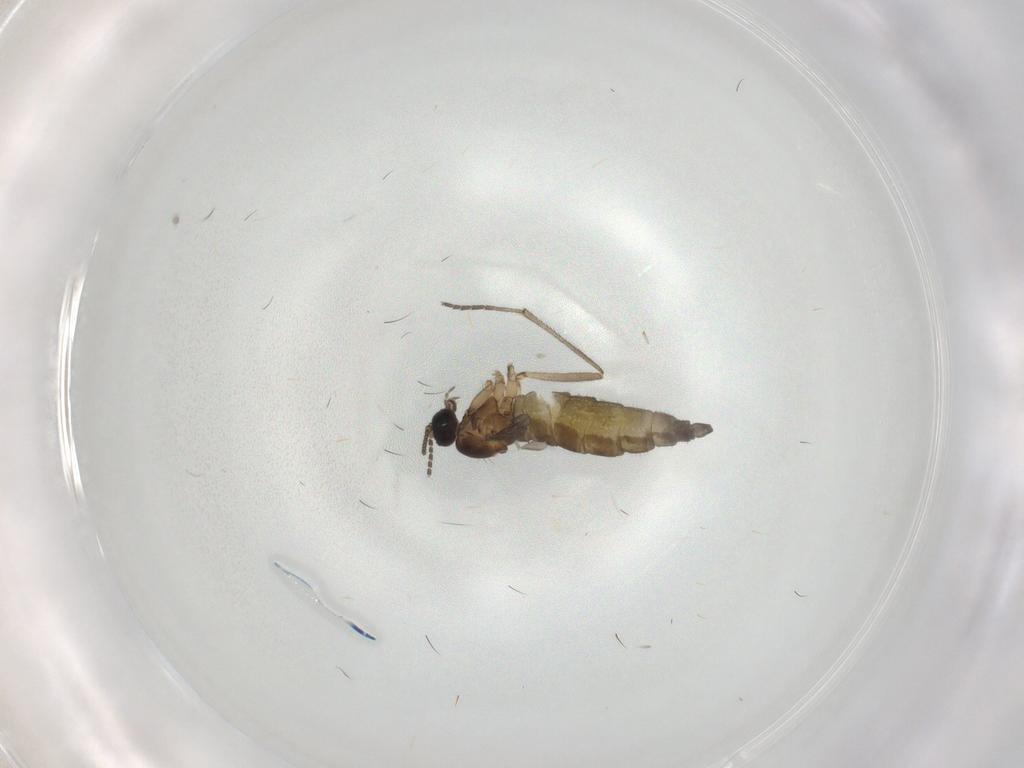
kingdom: Animalia
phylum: Arthropoda
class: Insecta
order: Diptera
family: Sciaridae
